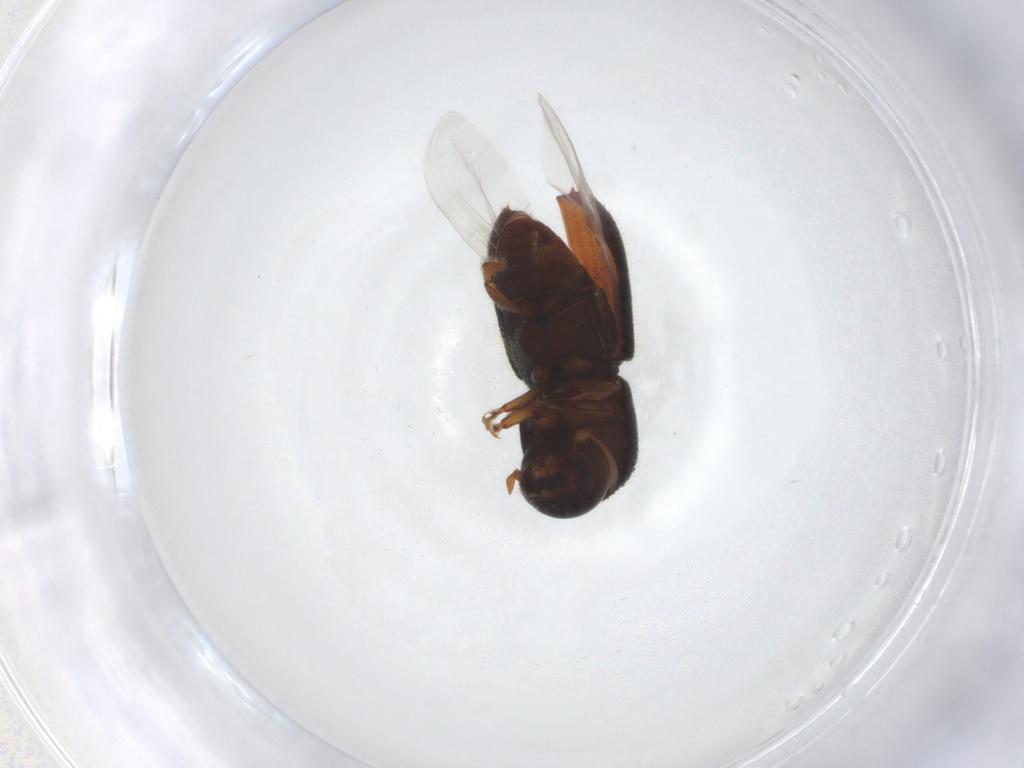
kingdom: Animalia
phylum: Arthropoda
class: Insecta
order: Coleoptera
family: Curculionidae
